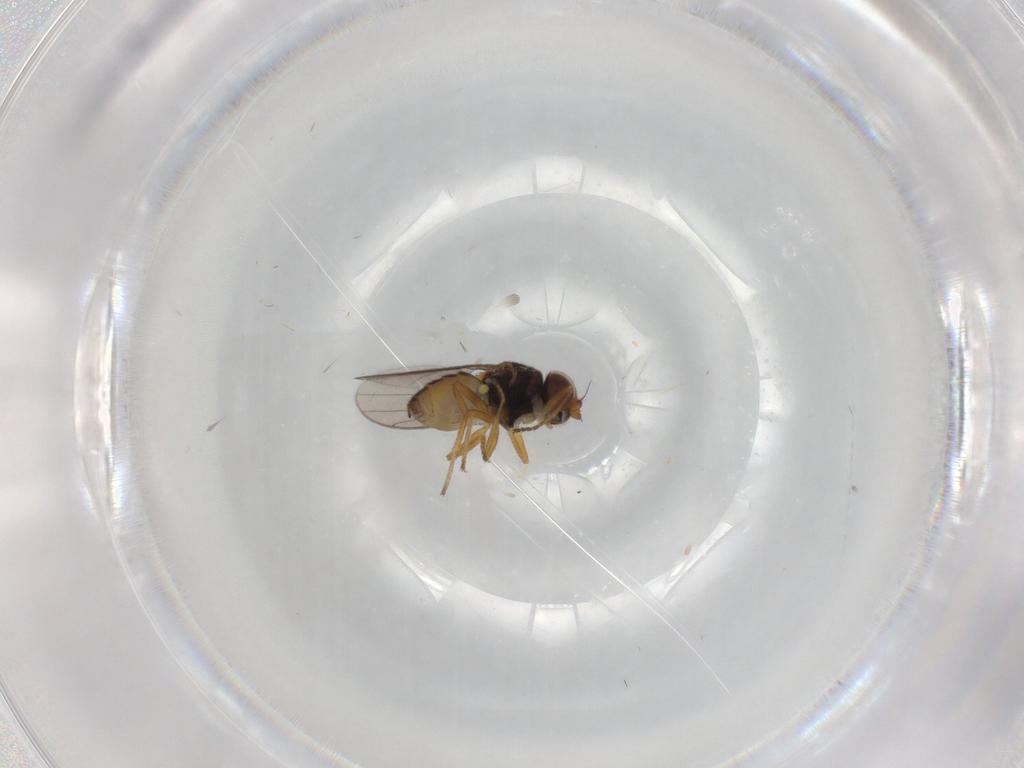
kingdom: Animalia
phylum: Arthropoda
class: Insecta
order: Diptera
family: Chloropidae
